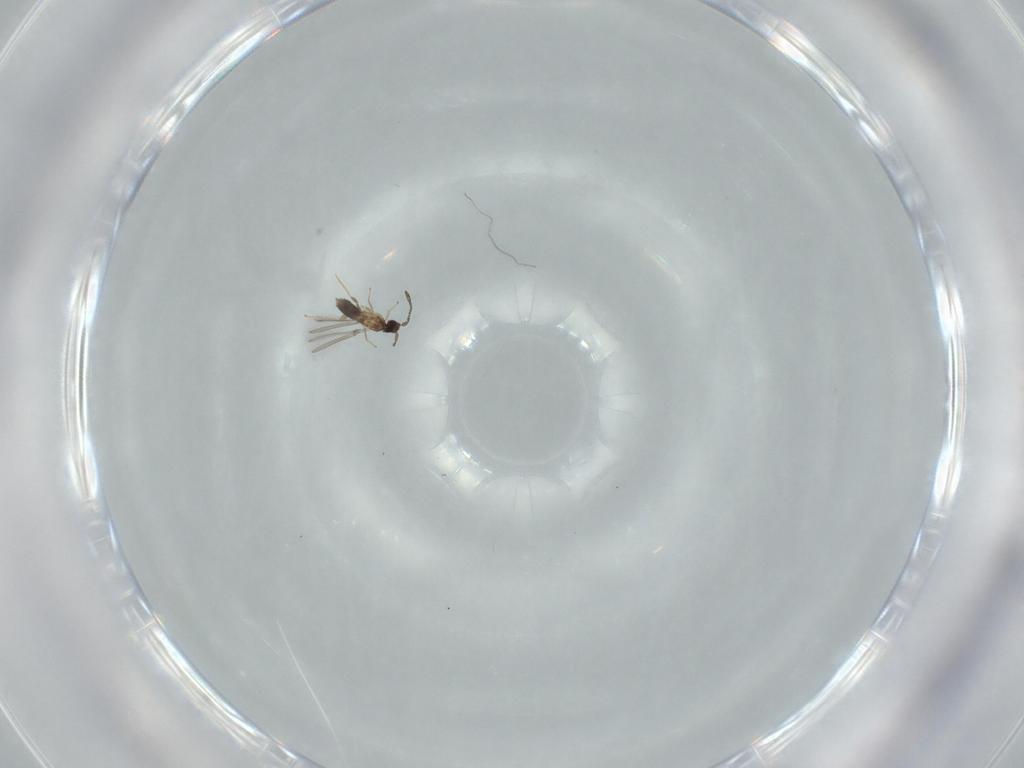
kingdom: Animalia
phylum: Arthropoda
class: Insecta
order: Hymenoptera
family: Mymaridae
